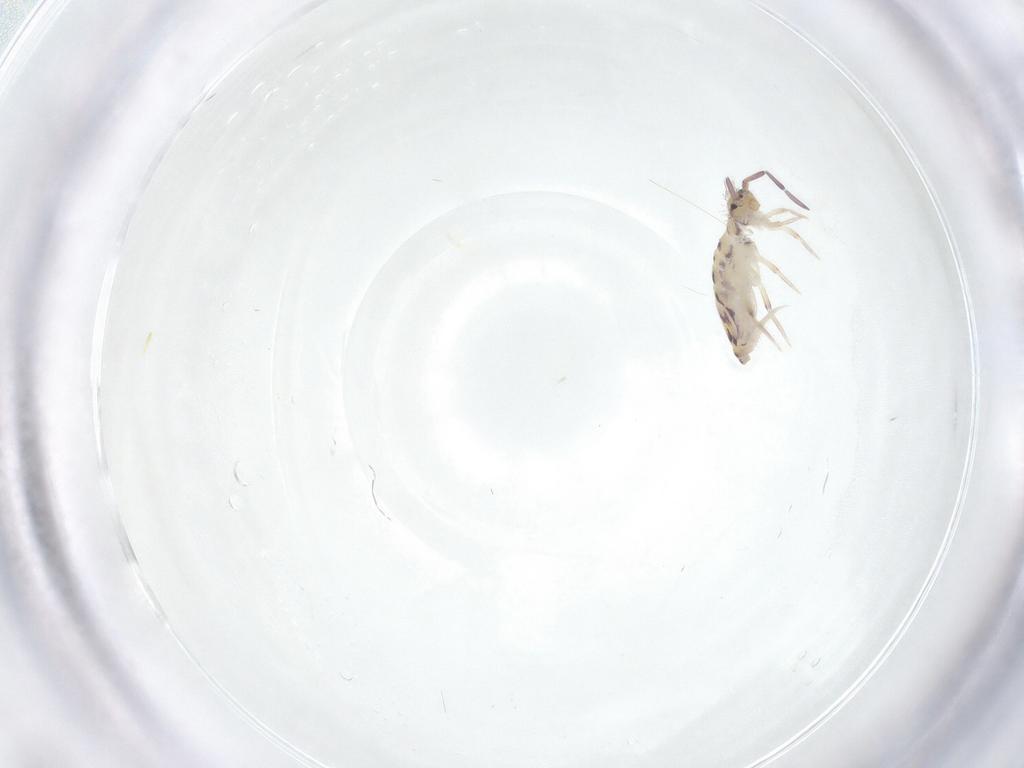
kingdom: Animalia
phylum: Arthropoda
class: Collembola
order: Entomobryomorpha
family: Entomobryidae
